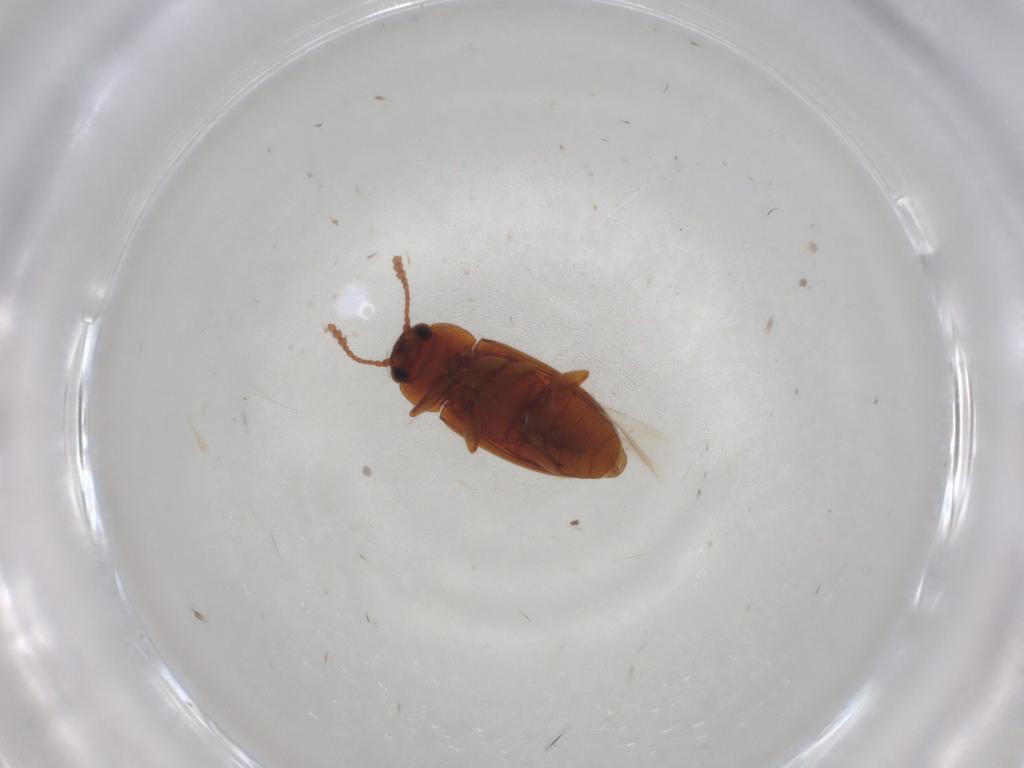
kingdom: Animalia
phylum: Arthropoda
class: Insecta
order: Coleoptera
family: Erotylidae
